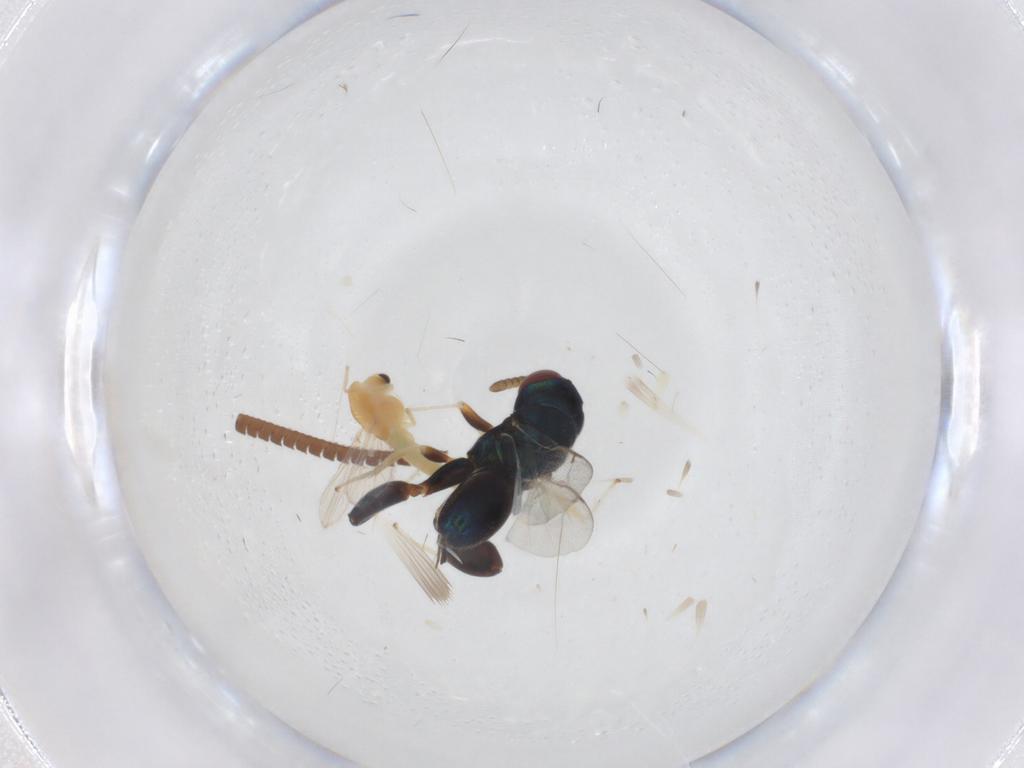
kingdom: Animalia
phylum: Arthropoda
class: Insecta
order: Diptera
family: Chironomidae
